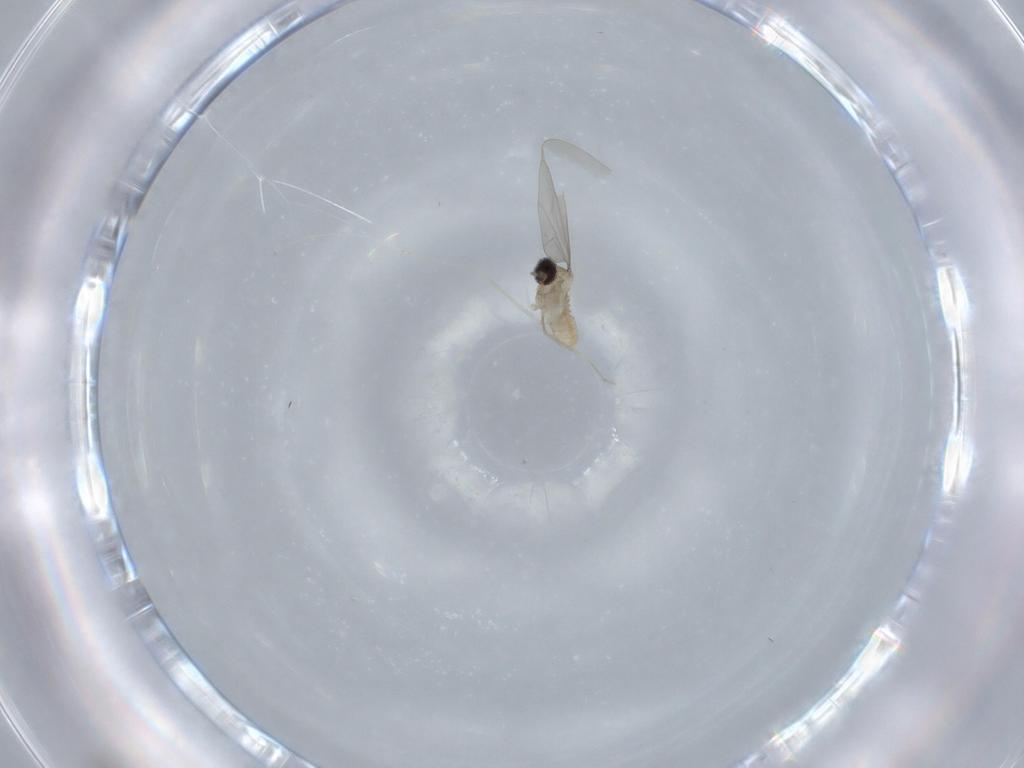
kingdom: Animalia
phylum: Arthropoda
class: Insecta
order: Diptera
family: Cecidomyiidae
